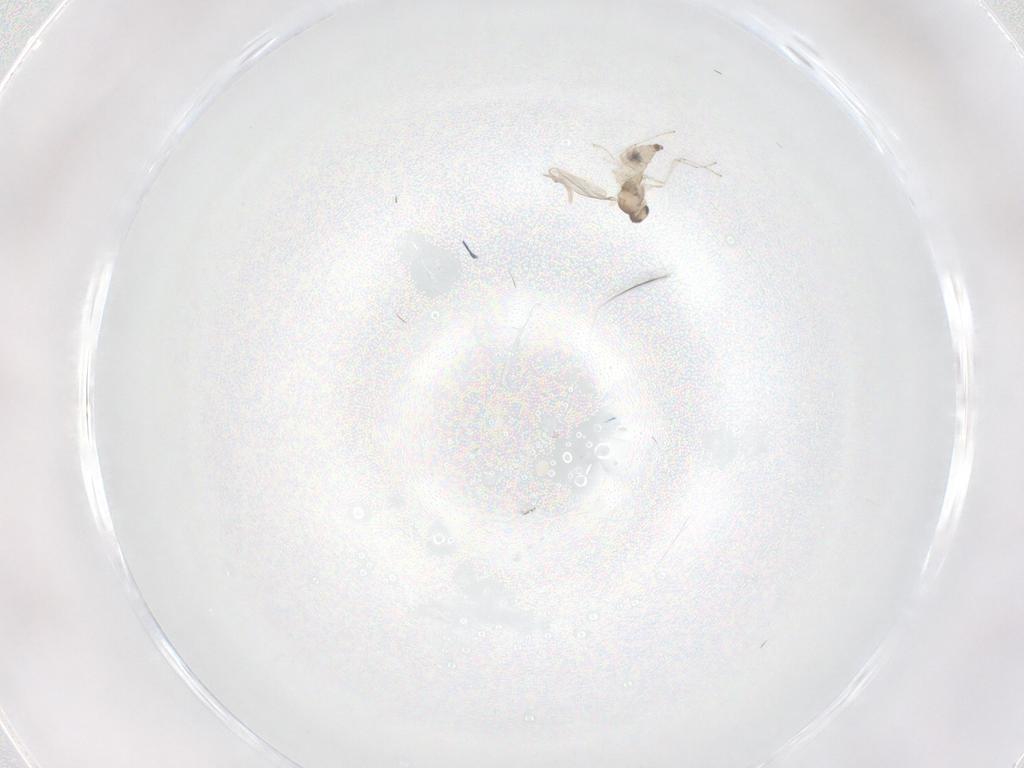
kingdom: Animalia
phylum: Arthropoda
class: Insecta
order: Diptera
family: Cecidomyiidae
